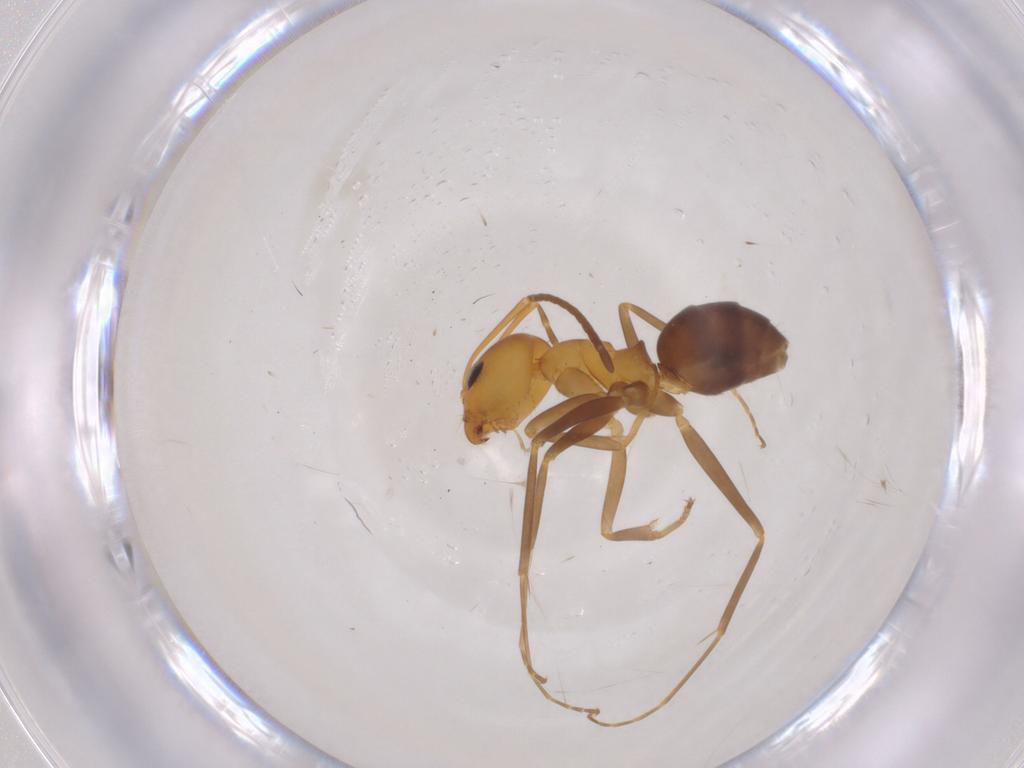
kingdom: Animalia
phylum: Arthropoda
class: Insecta
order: Hymenoptera
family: Formicidae
